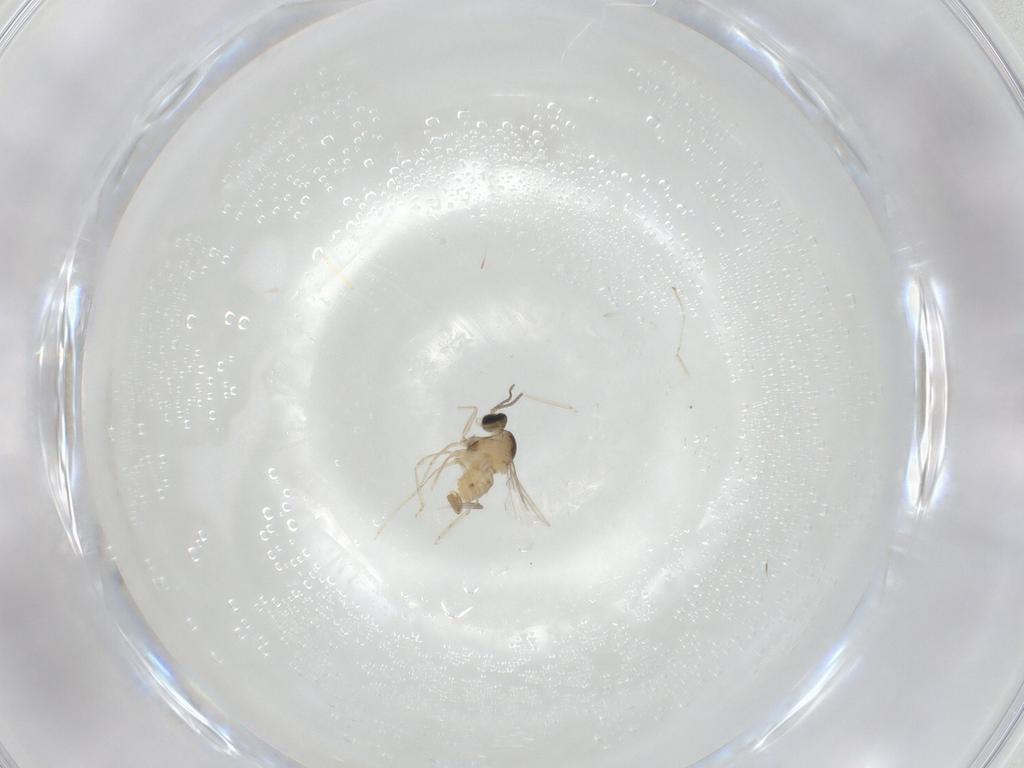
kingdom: Animalia
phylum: Arthropoda
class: Insecta
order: Diptera
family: Cecidomyiidae
